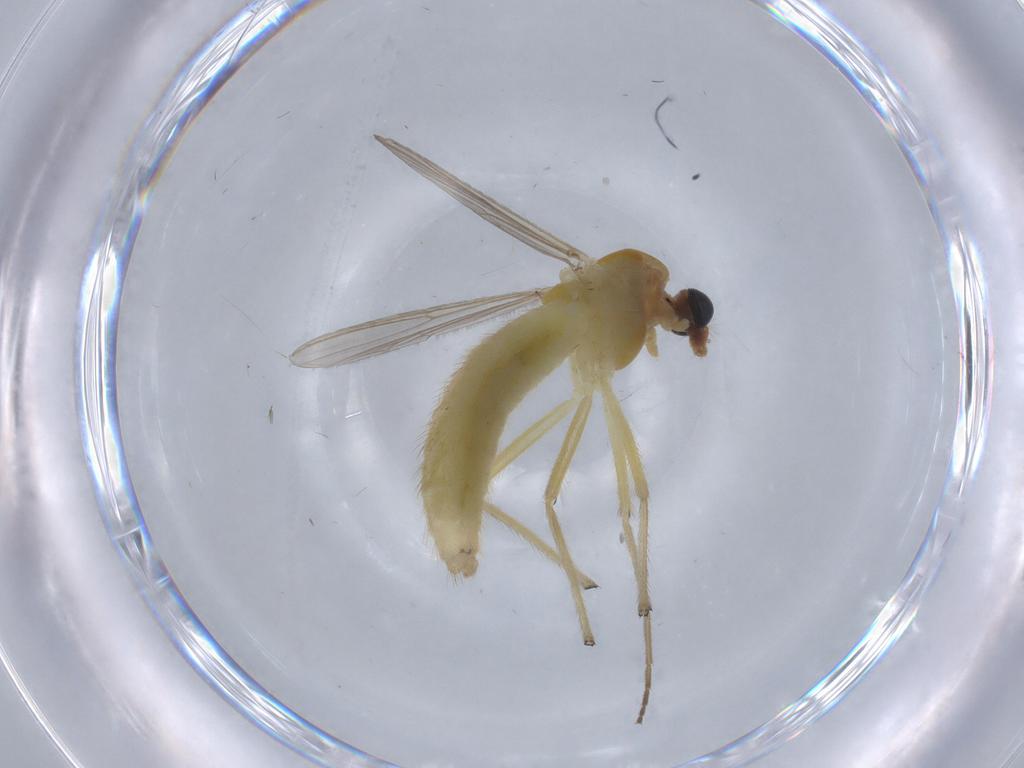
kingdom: Animalia
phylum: Arthropoda
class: Insecta
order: Diptera
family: Chironomidae
